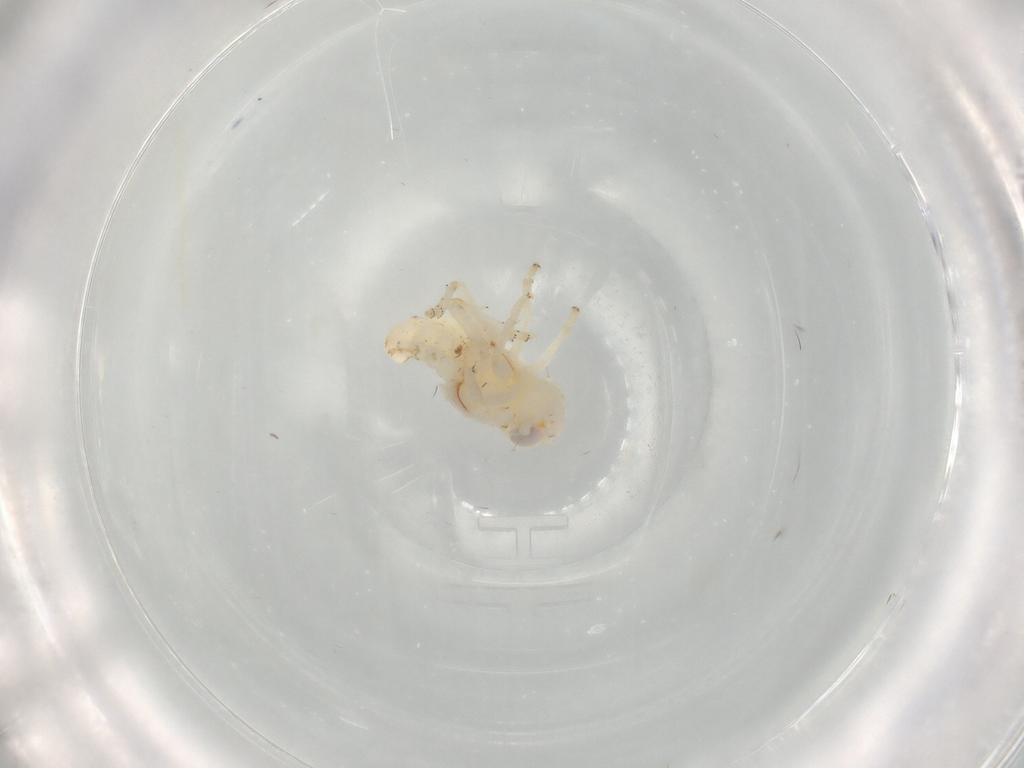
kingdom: Animalia
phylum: Arthropoda
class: Insecta
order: Hemiptera
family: Nogodinidae
